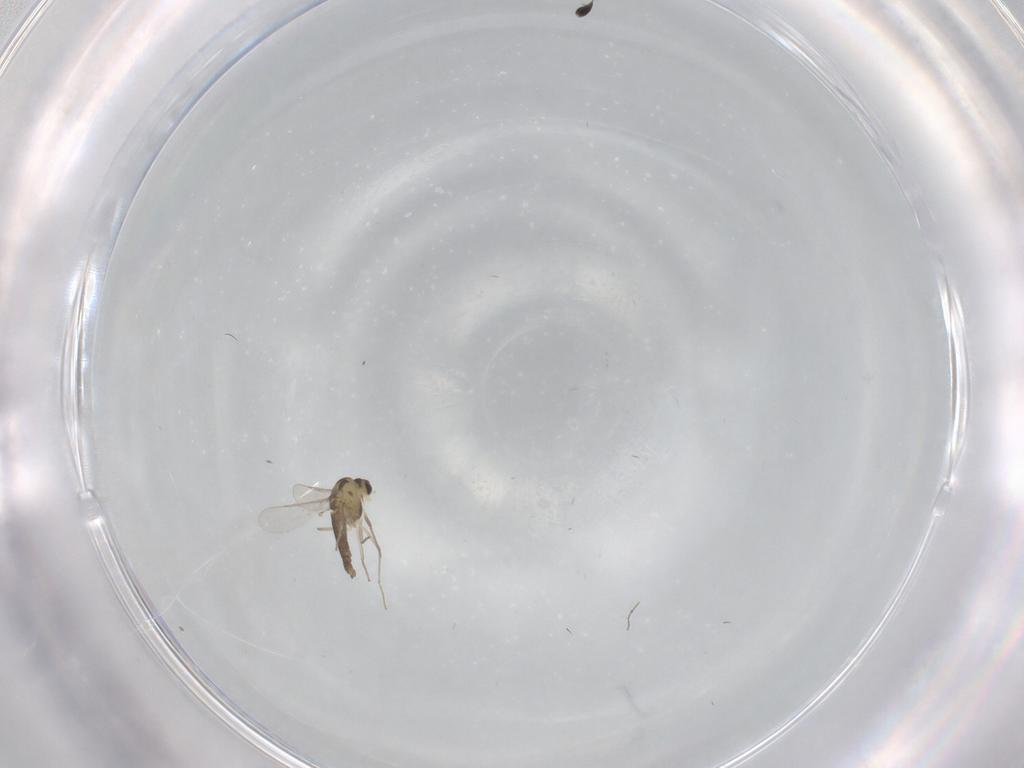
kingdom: Animalia
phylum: Arthropoda
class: Insecta
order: Diptera
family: Chironomidae
